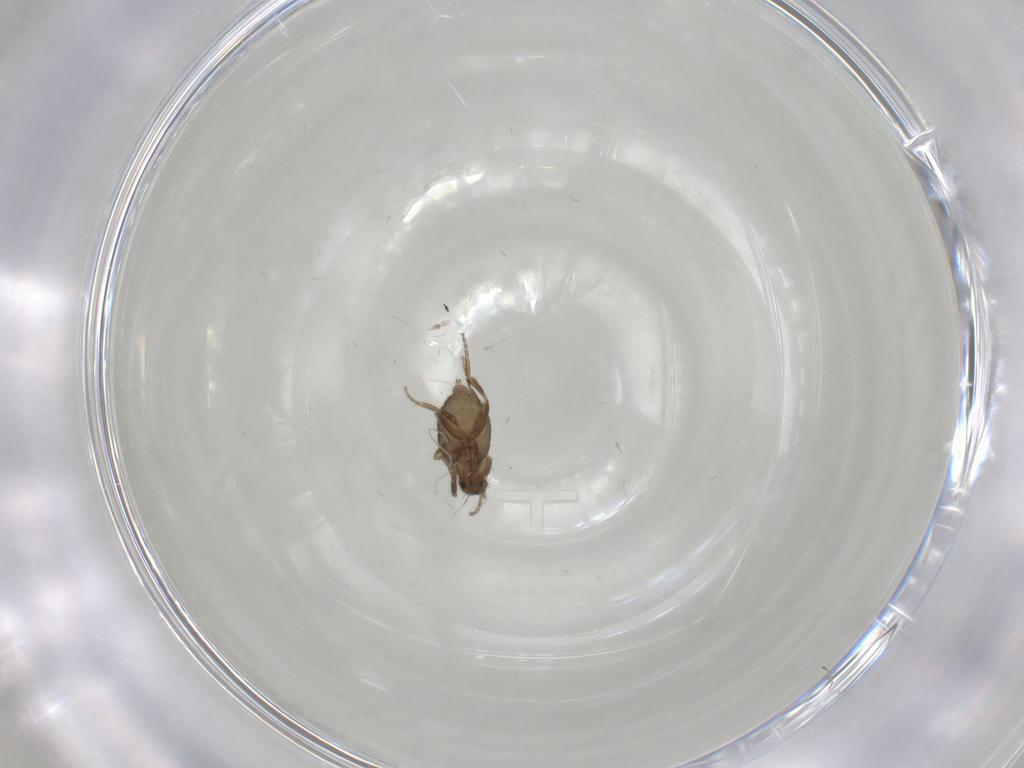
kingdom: Animalia
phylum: Arthropoda
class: Insecta
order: Diptera
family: Phoridae
